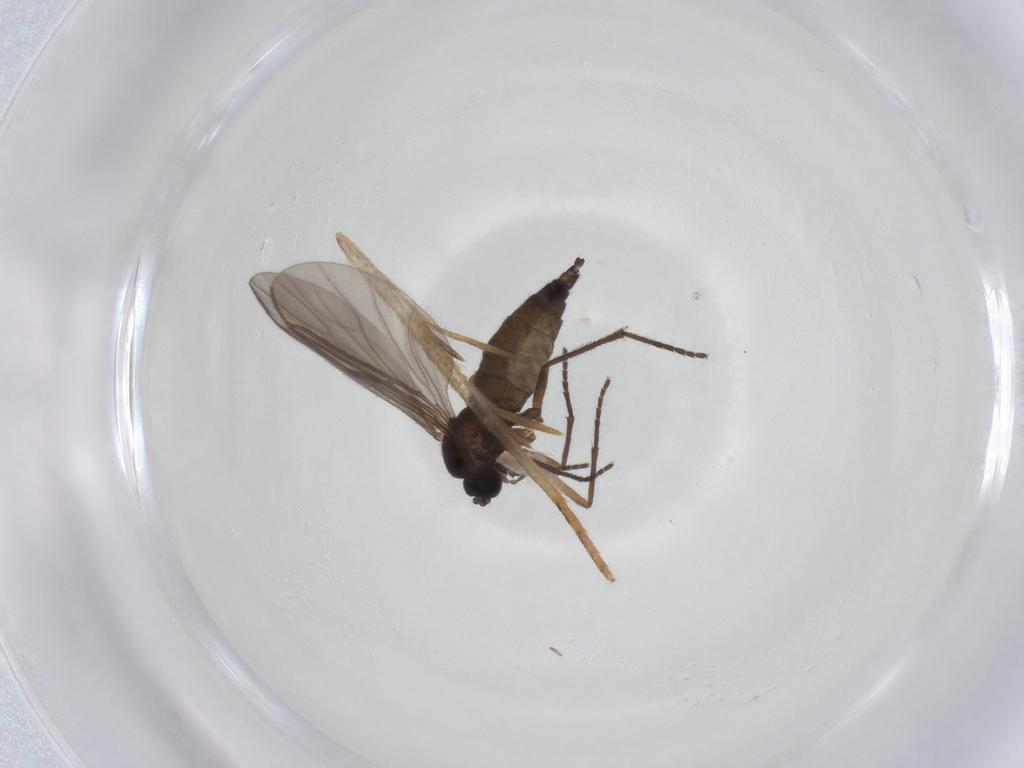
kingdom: Animalia
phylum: Arthropoda
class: Insecta
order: Diptera
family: Sciaridae
